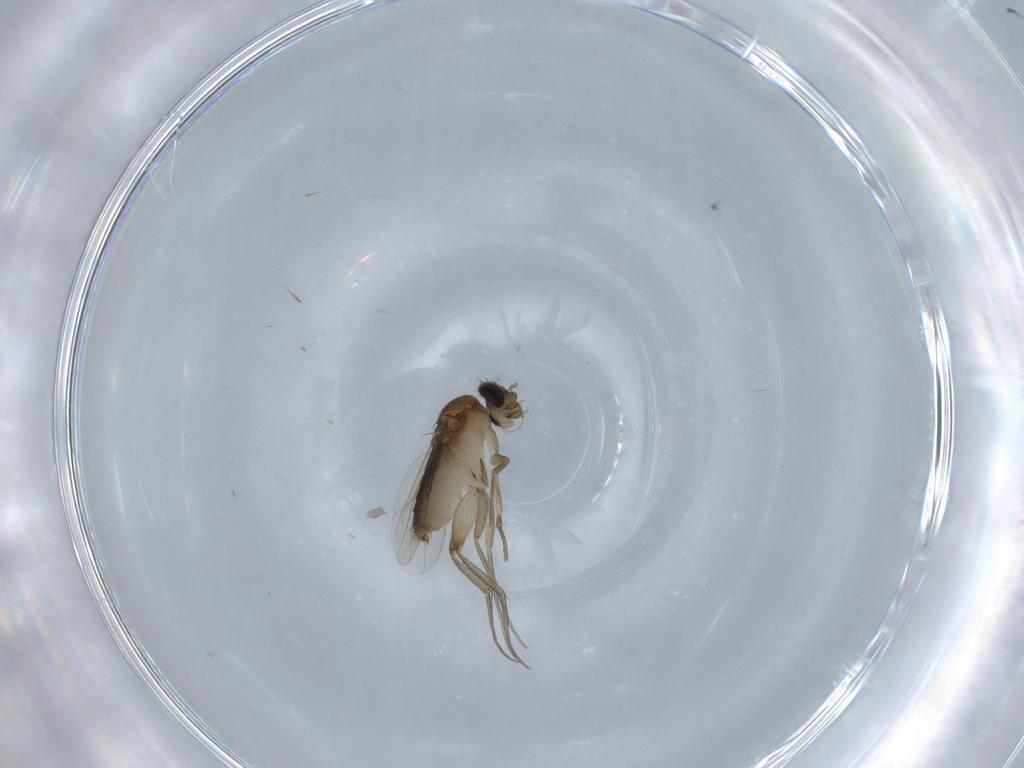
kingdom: Animalia
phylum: Arthropoda
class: Insecta
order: Diptera
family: Phoridae
